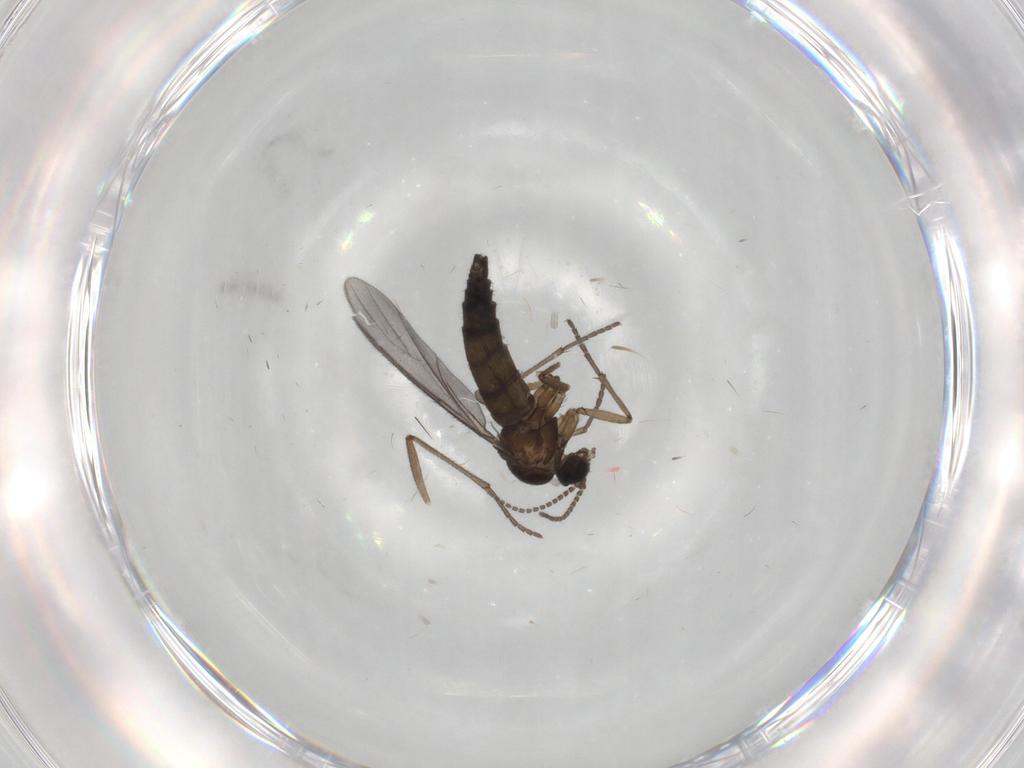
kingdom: Animalia
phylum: Arthropoda
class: Insecta
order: Diptera
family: Sciaridae
